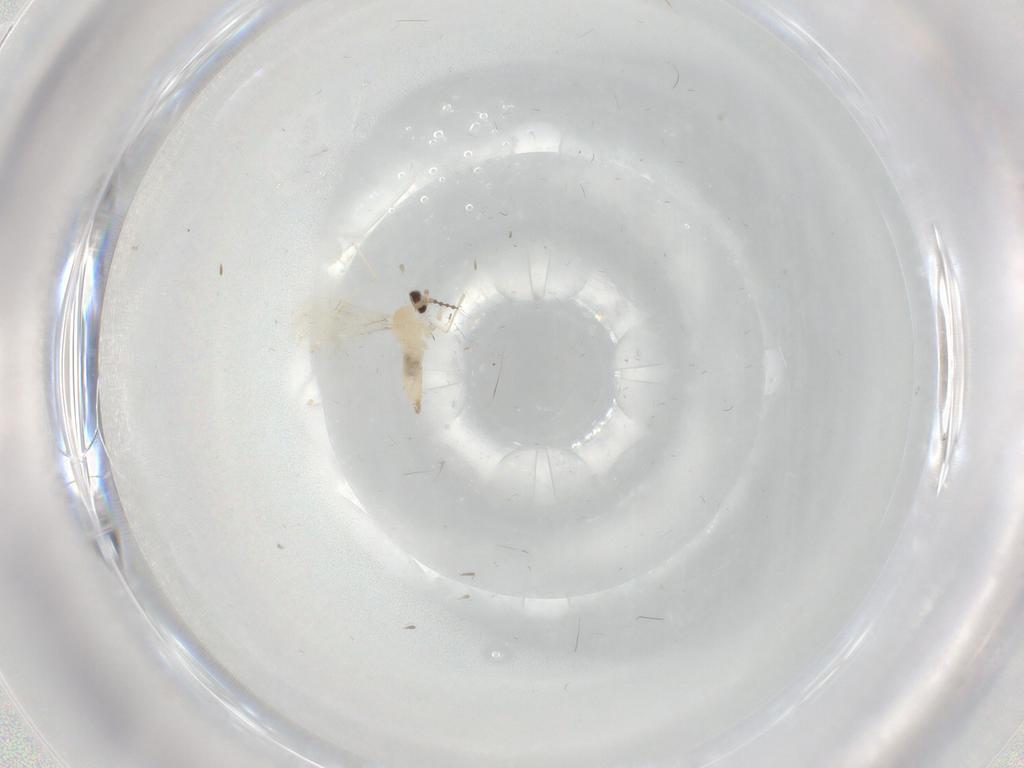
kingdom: Animalia
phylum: Arthropoda
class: Insecta
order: Diptera
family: Cecidomyiidae
